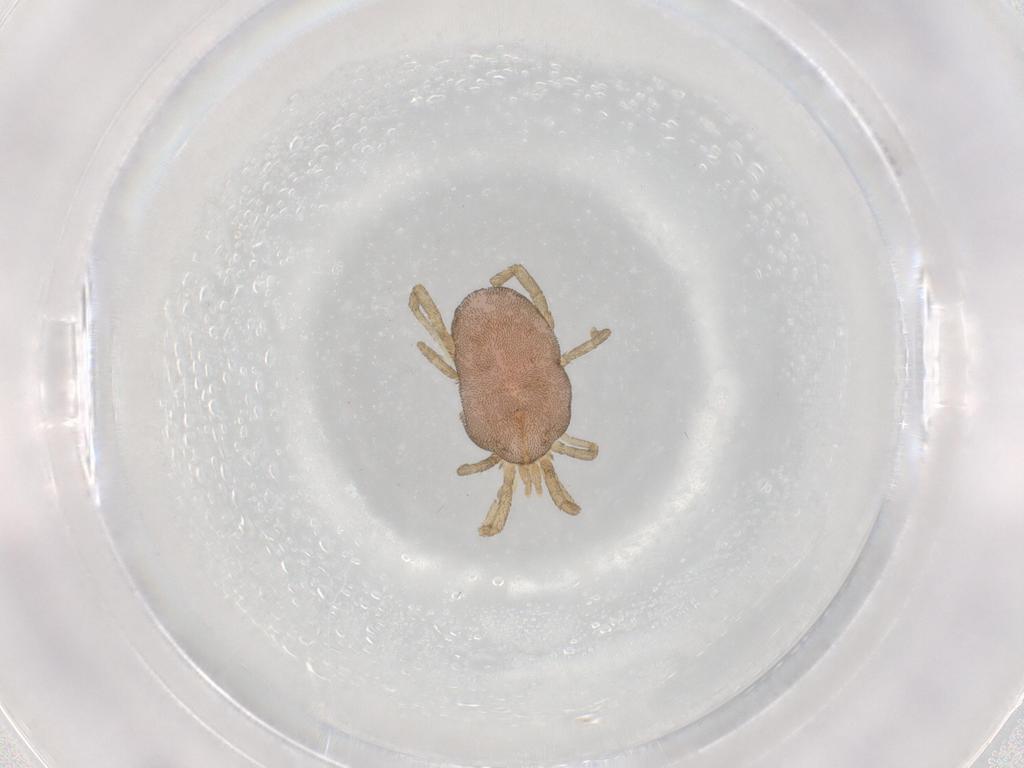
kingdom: Animalia
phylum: Arthropoda
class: Arachnida
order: Trombidiformes
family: Erythraeidae
